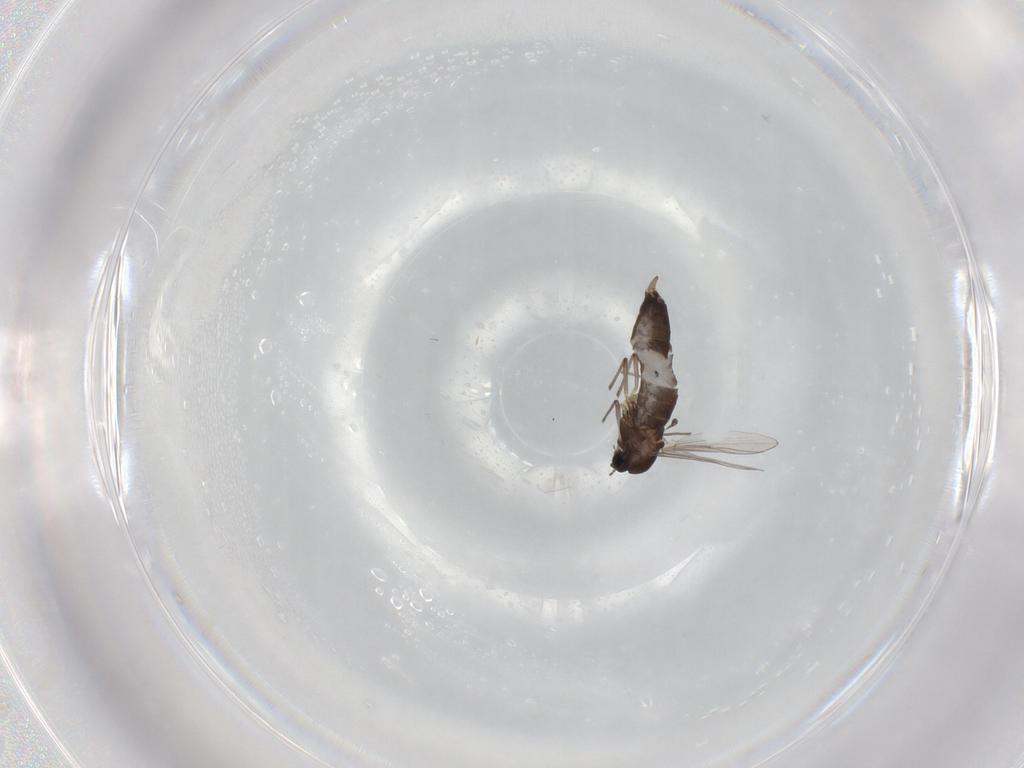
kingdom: Animalia
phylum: Arthropoda
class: Insecta
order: Diptera
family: Chironomidae
